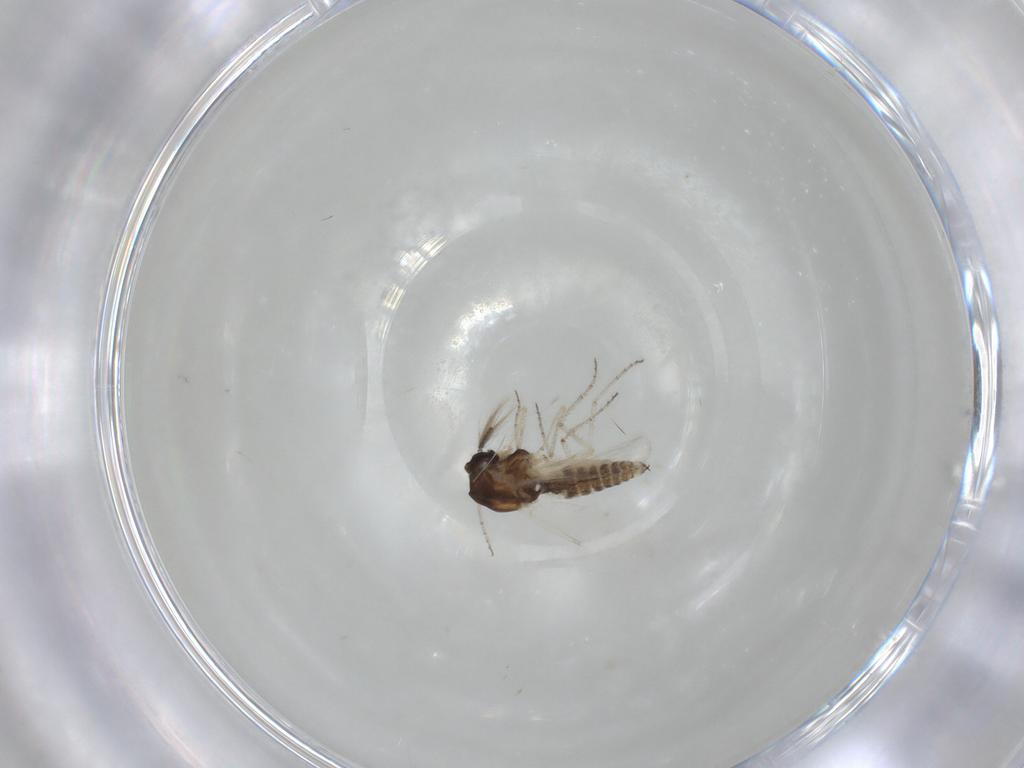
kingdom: Animalia
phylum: Arthropoda
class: Insecta
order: Diptera
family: Ceratopogonidae
